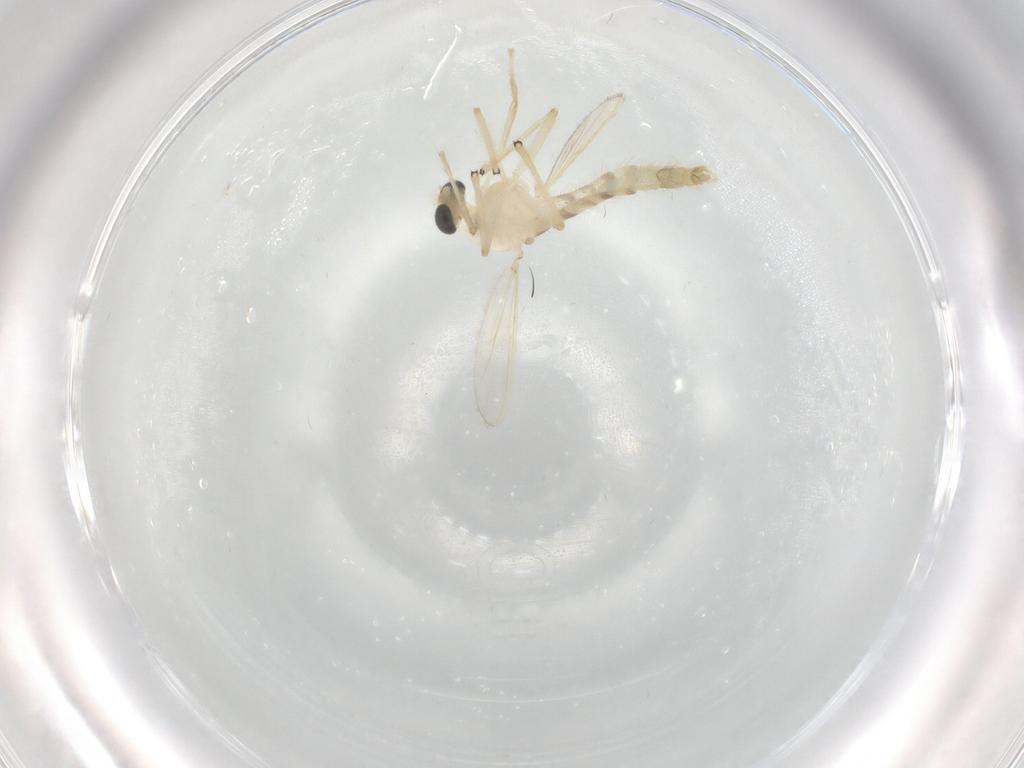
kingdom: Animalia
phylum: Arthropoda
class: Insecta
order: Diptera
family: Chironomidae
